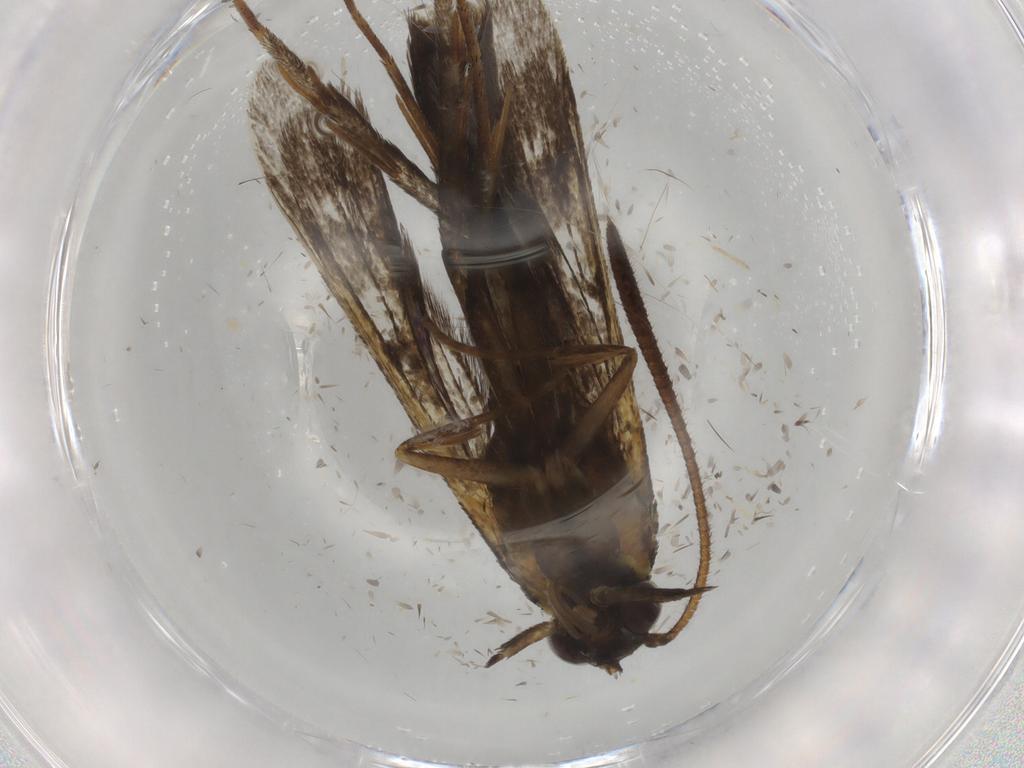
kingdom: Animalia
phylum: Arthropoda
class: Insecta
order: Lepidoptera
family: Sesiidae
